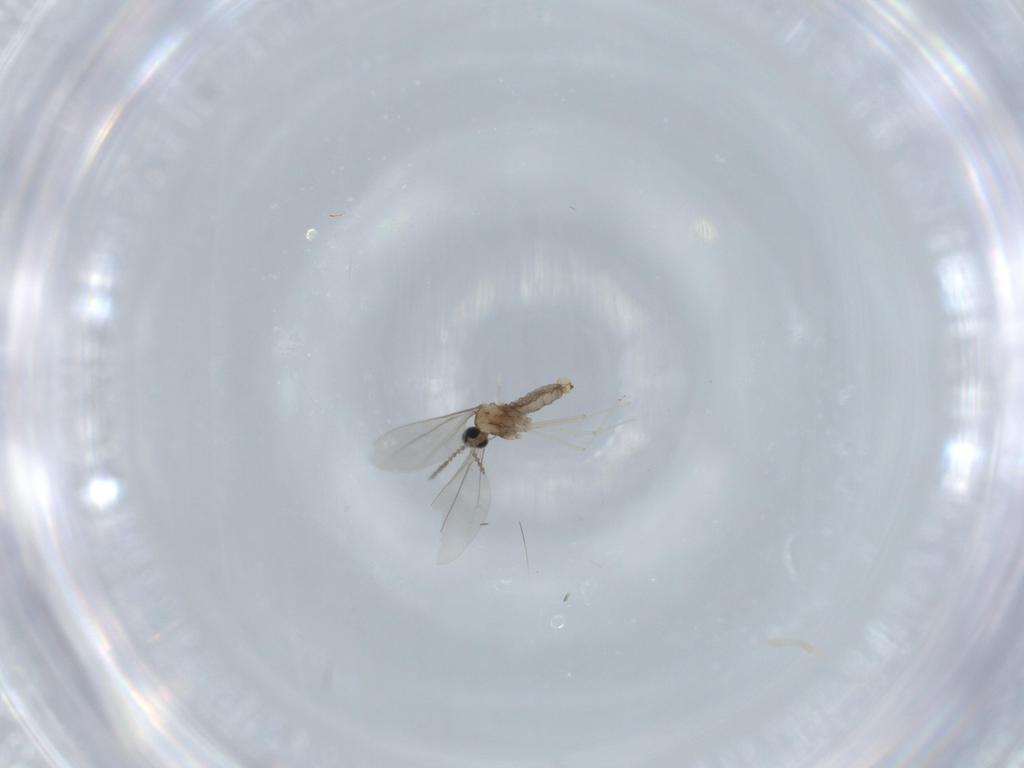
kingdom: Animalia
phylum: Arthropoda
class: Insecta
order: Diptera
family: Cecidomyiidae
